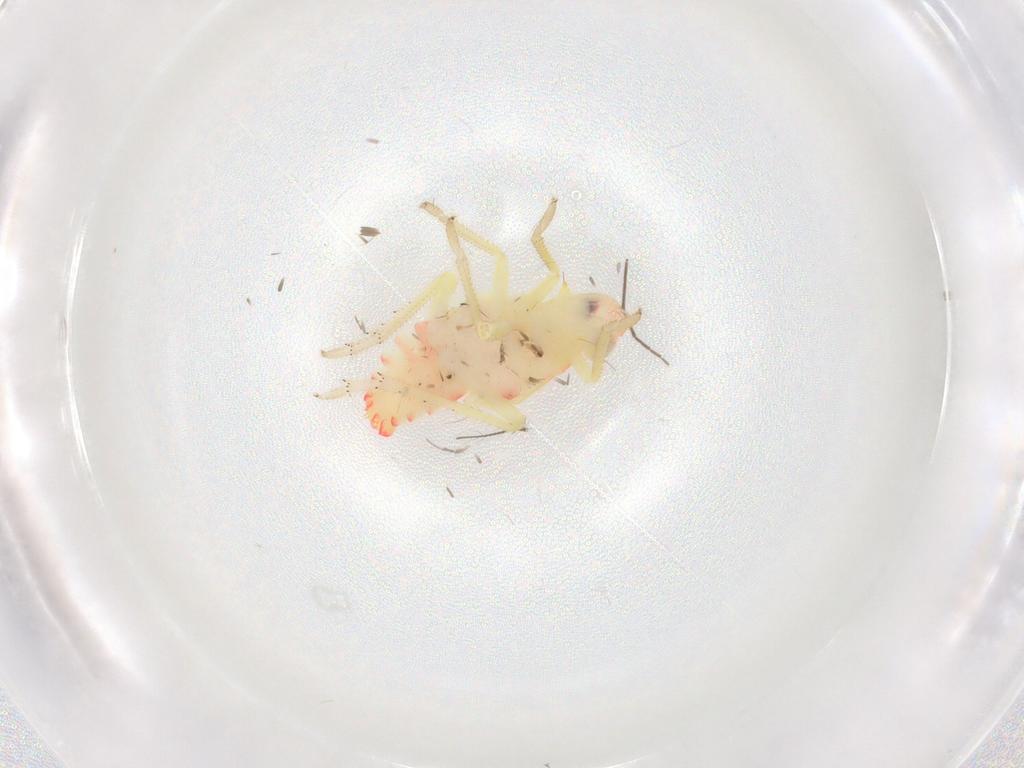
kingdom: Animalia
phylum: Arthropoda
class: Insecta
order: Hemiptera
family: Tropiduchidae
